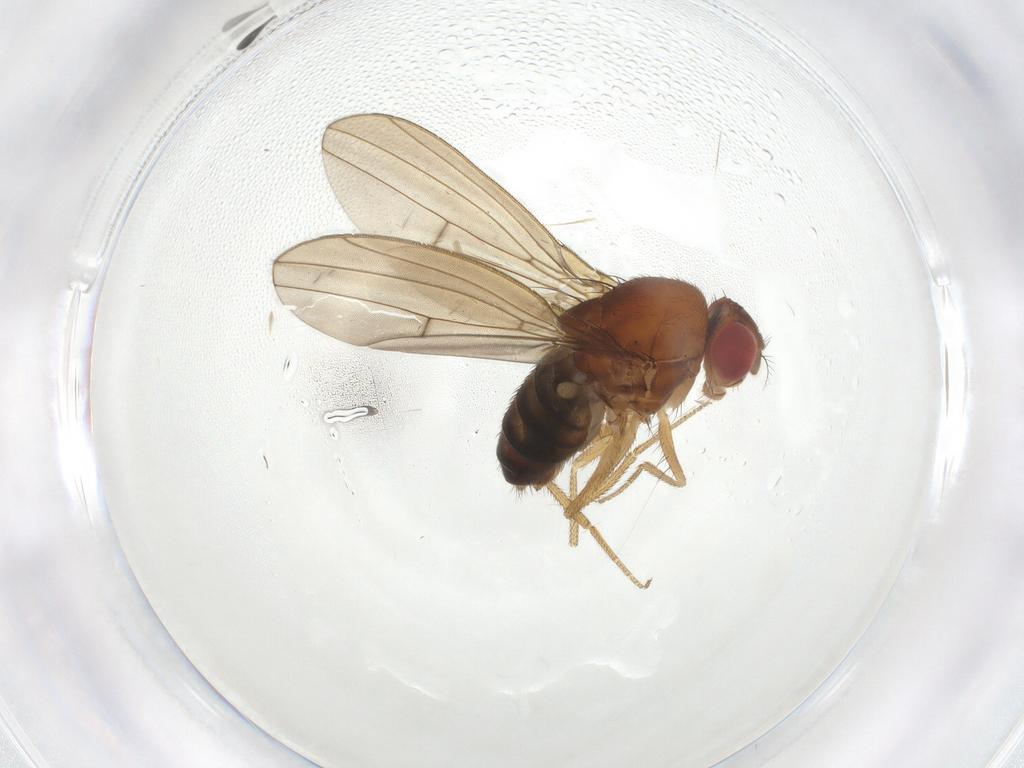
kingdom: Animalia
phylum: Arthropoda
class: Insecta
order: Diptera
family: Drosophilidae
